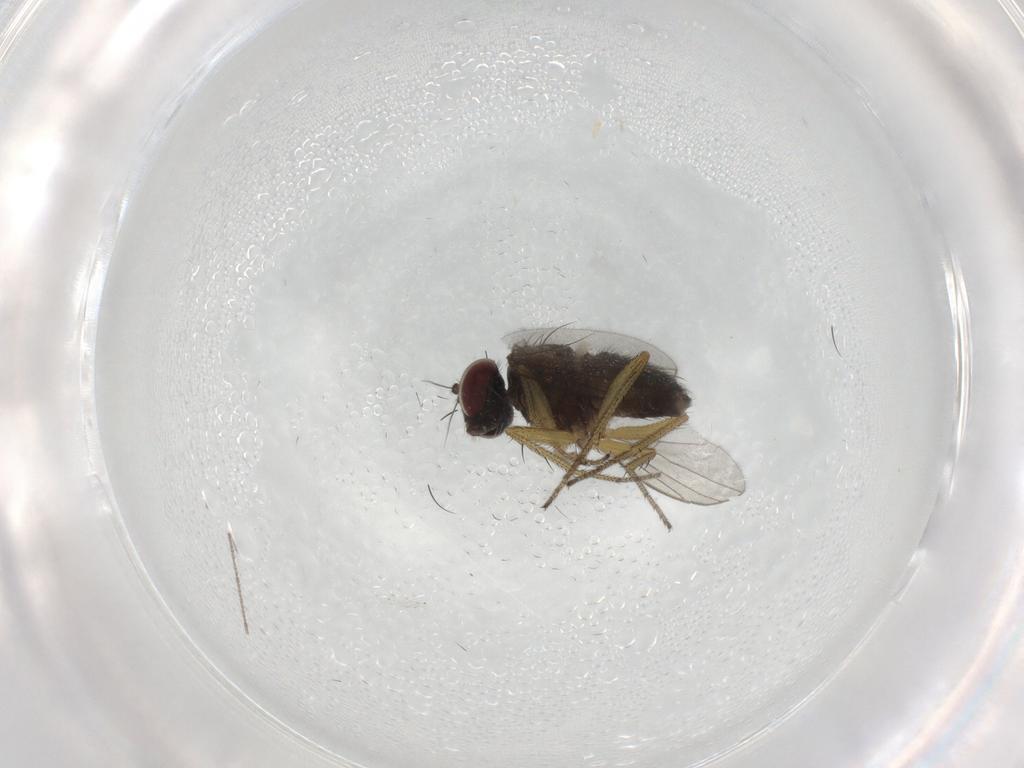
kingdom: Animalia
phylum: Arthropoda
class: Insecta
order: Diptera
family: Dolichopodidae
